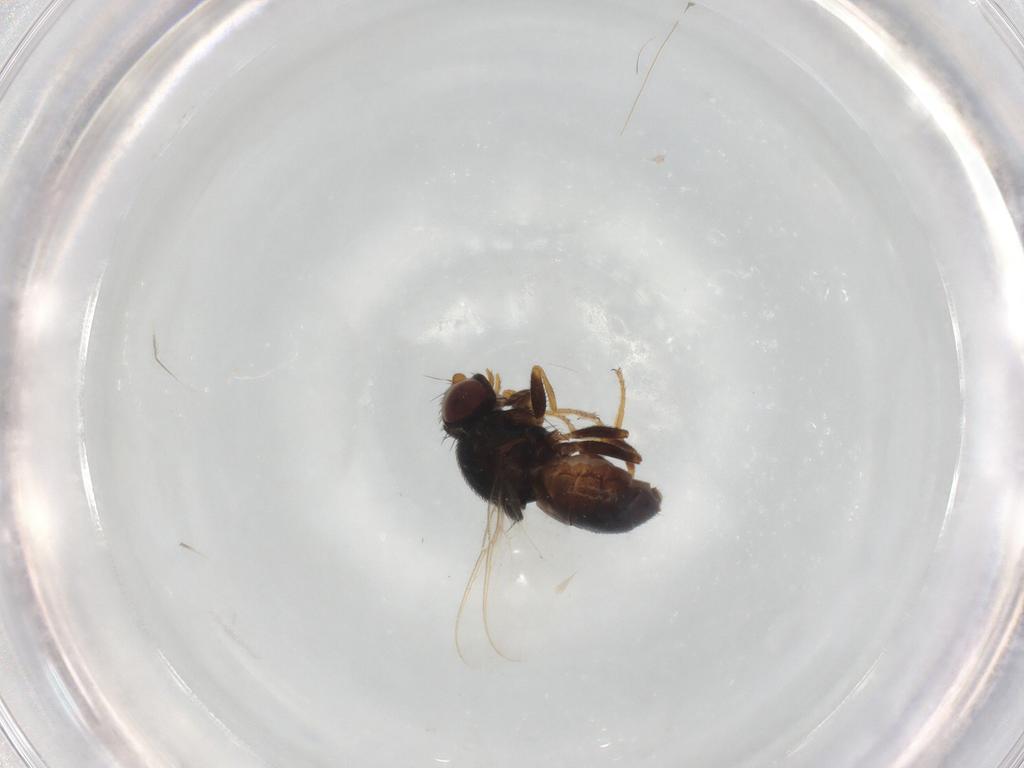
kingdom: Animalia
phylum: Arthropoda
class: Insecta
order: Diptera
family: Chloropidae
